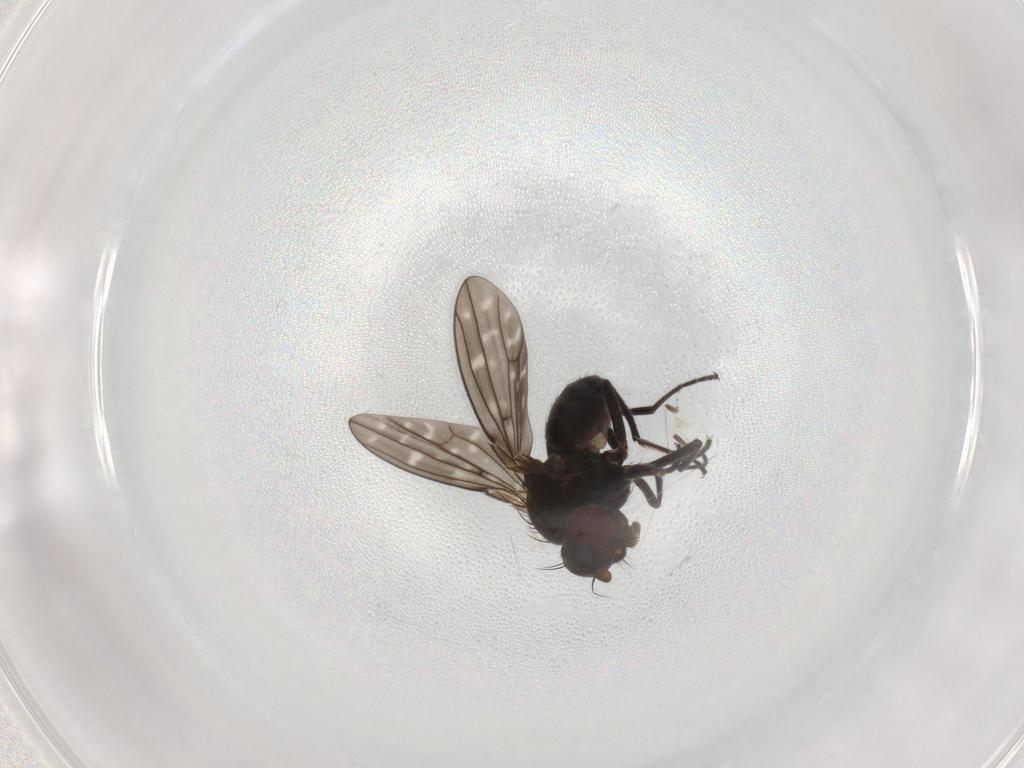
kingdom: Animalia
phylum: Arthropoda
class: Insecta
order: Diptera
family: Ephydridae
